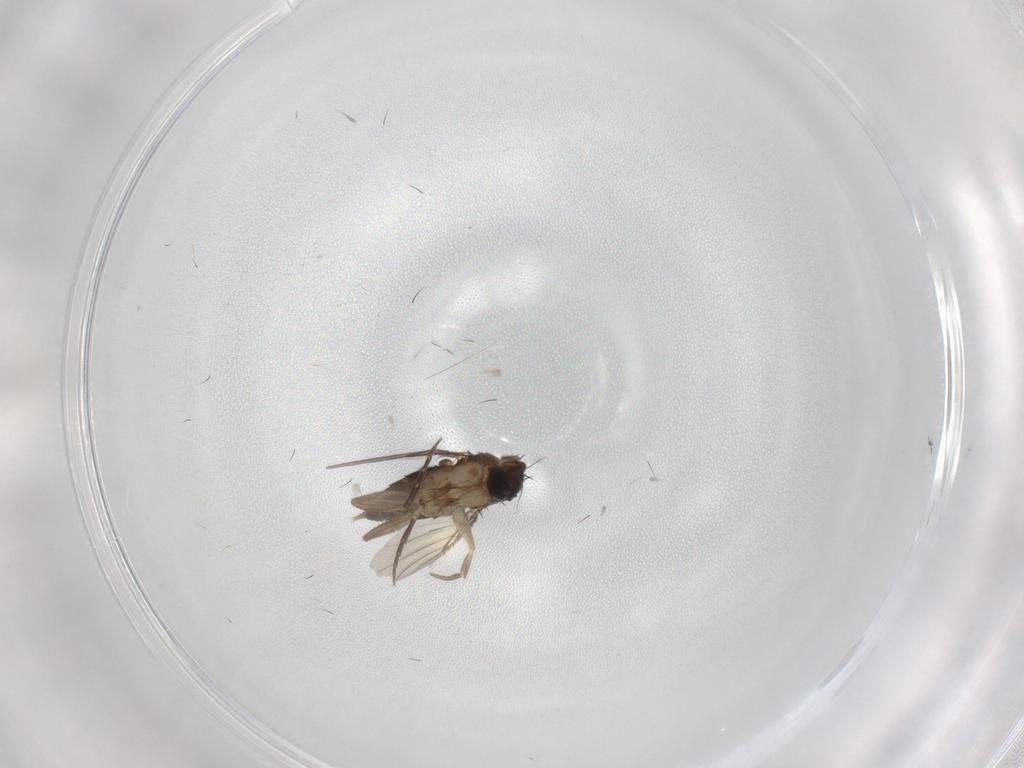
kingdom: Animalia
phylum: Arthropoda
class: Insecta
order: Diptera
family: Phoridae
